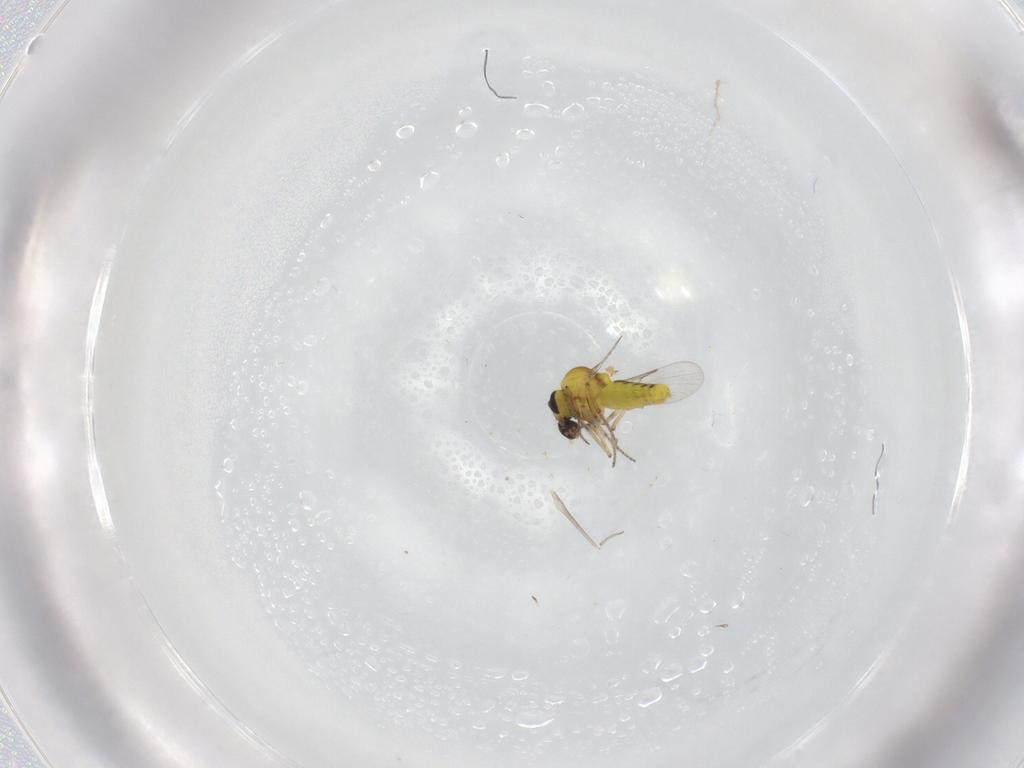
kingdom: Animalia
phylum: Arthropoda
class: Insecta
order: Diptera
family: Ceratopogonidae
